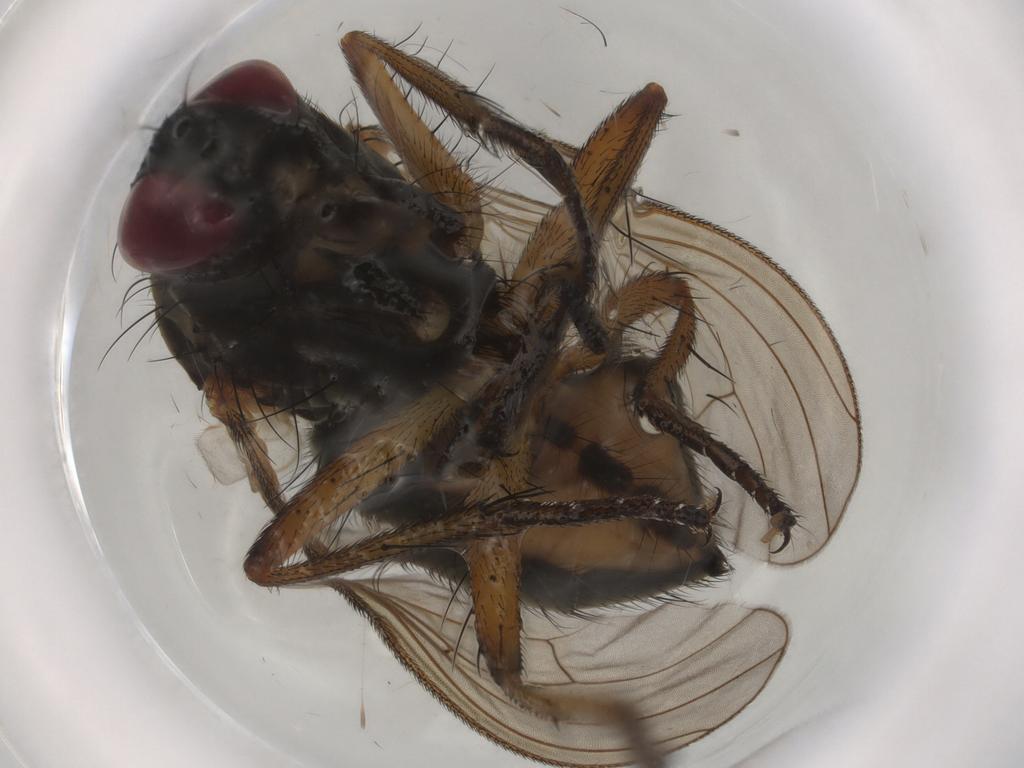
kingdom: Animalia
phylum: Arthropoda
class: Insecta
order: Diptera
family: Ceratopogonidae
